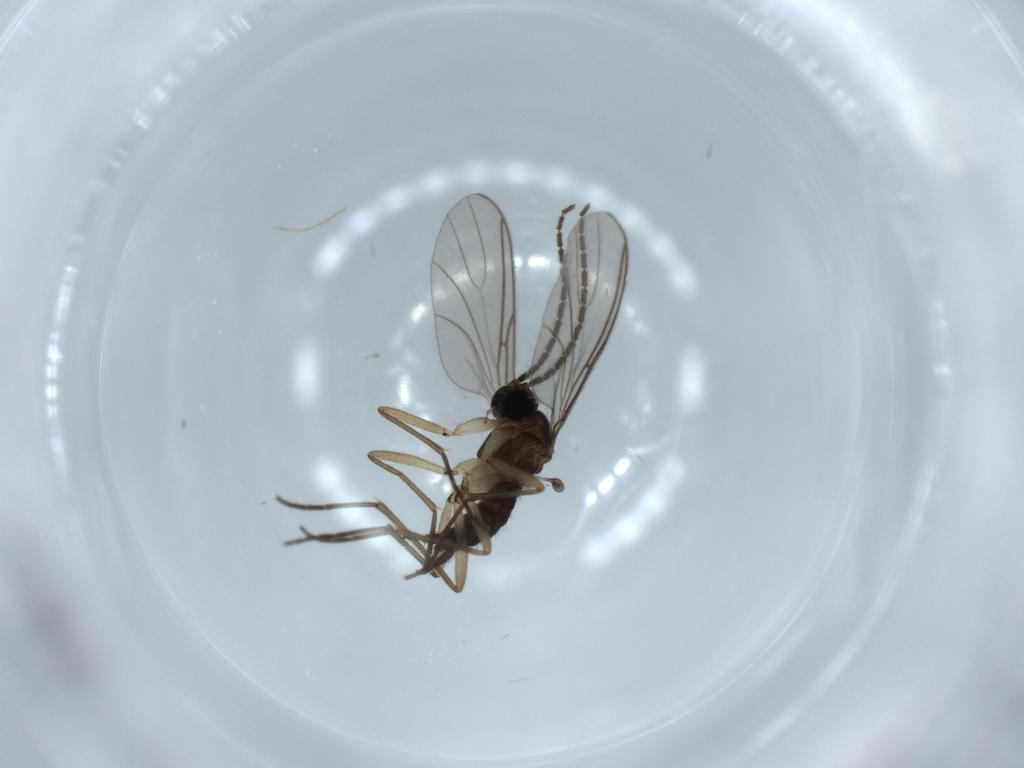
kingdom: Animalia
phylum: Arthropoda
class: Insecta
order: Diptera
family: Sciaridae
